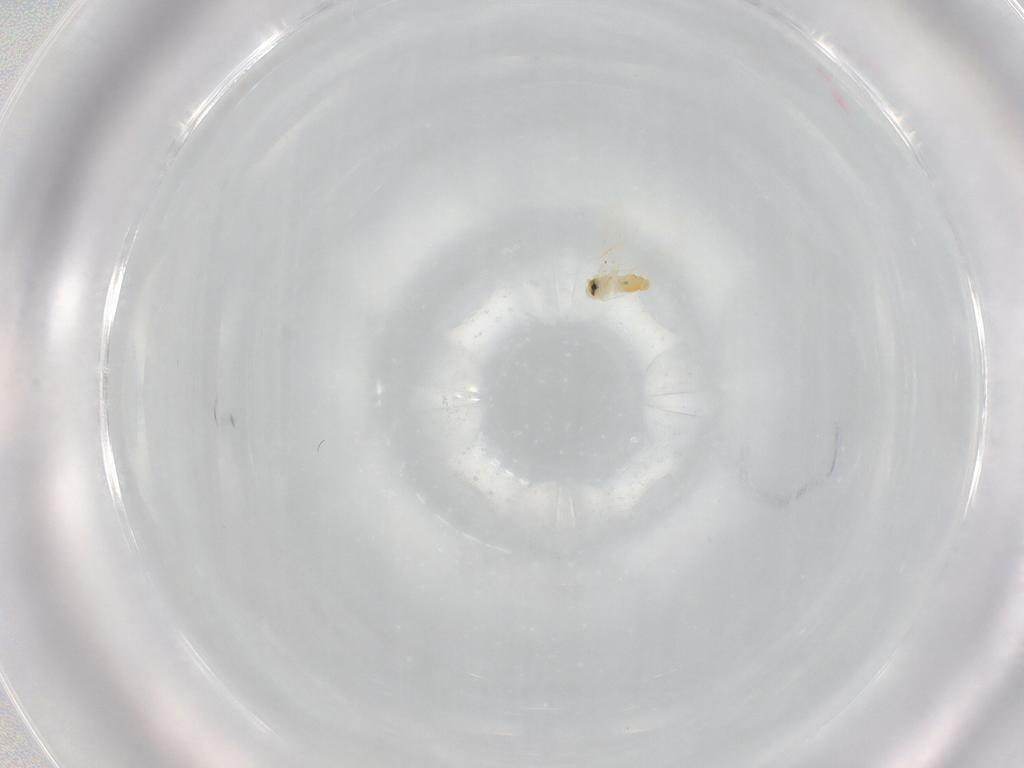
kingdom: Animalia
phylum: Arthropoda
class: Insecta
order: Hemiptera
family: Aleyrodidae
